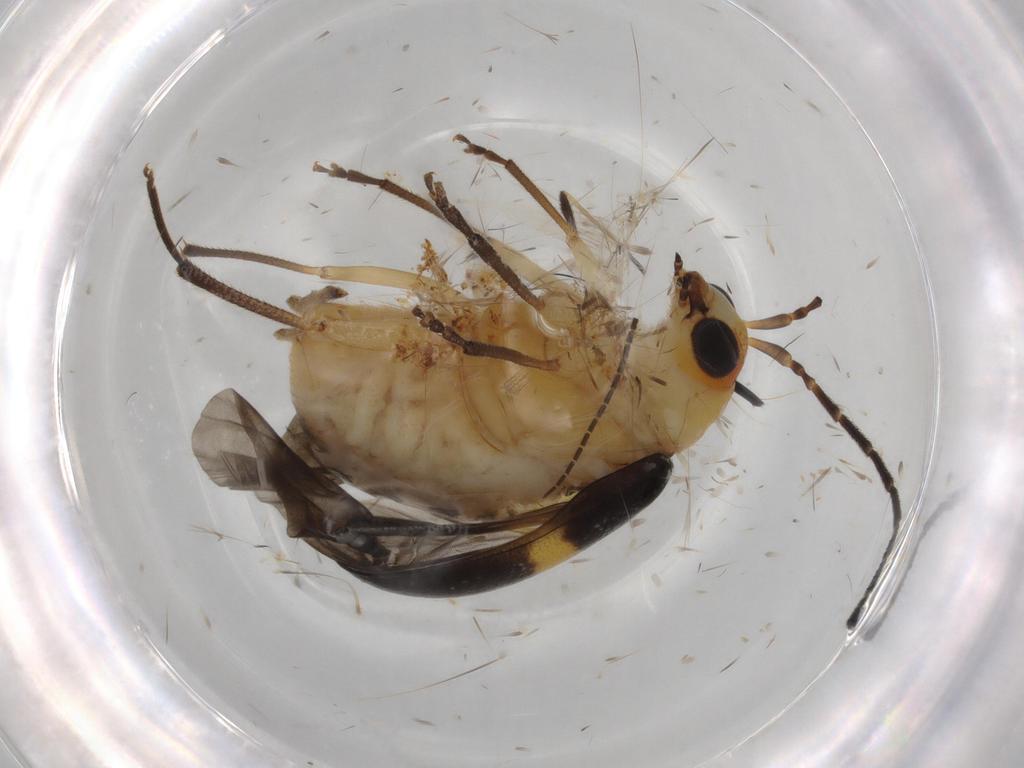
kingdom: Animalia
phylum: Arthropoda
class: Insecta
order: Coleoptera
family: Chrysomelidae
